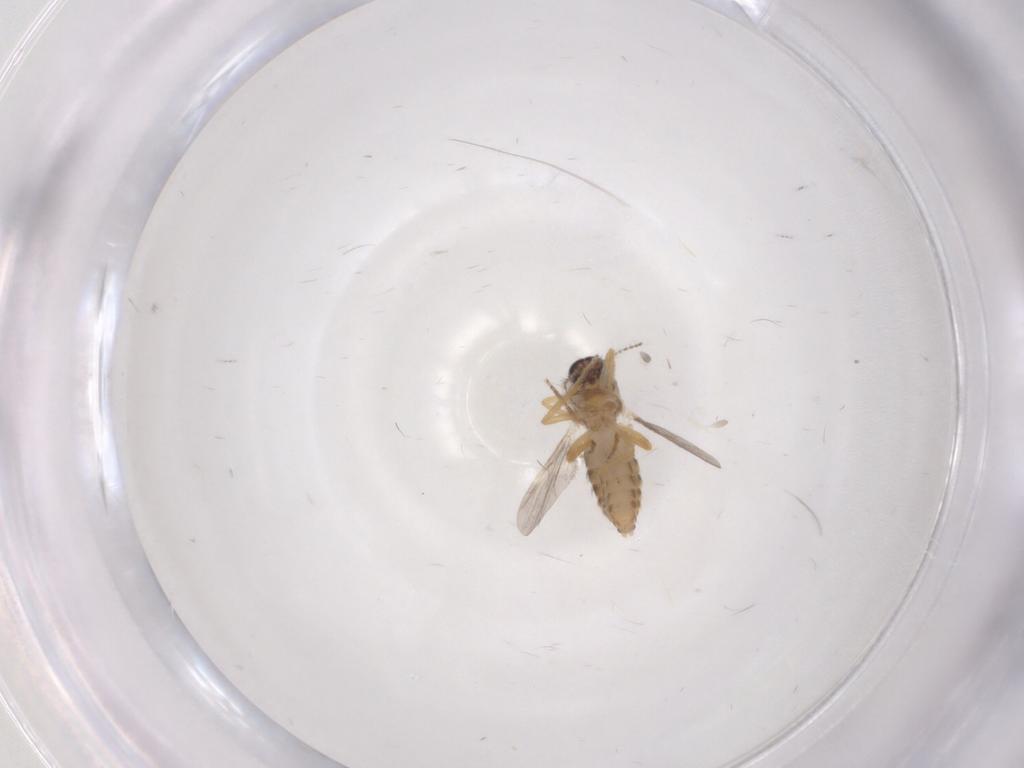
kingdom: Animalia
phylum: Arthropoda
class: Insecta
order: Diptera
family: Ceratopogonidae
